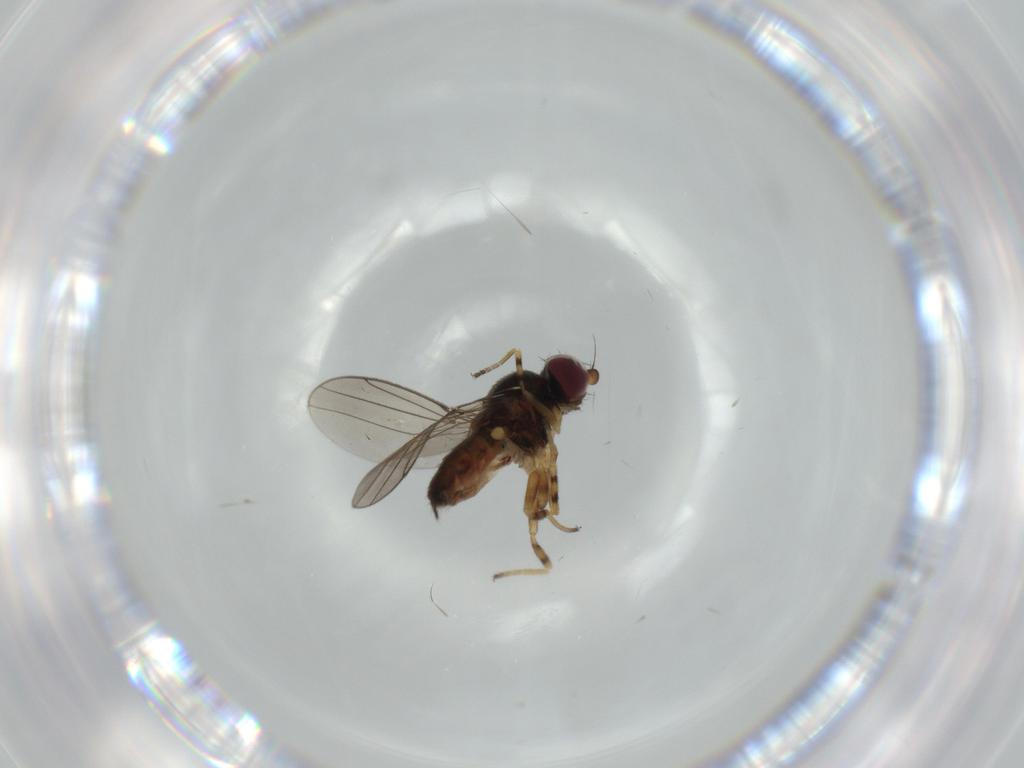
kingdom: Animalia
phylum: Arthropoda
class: Insecta
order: Diptera
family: Chloropidae
